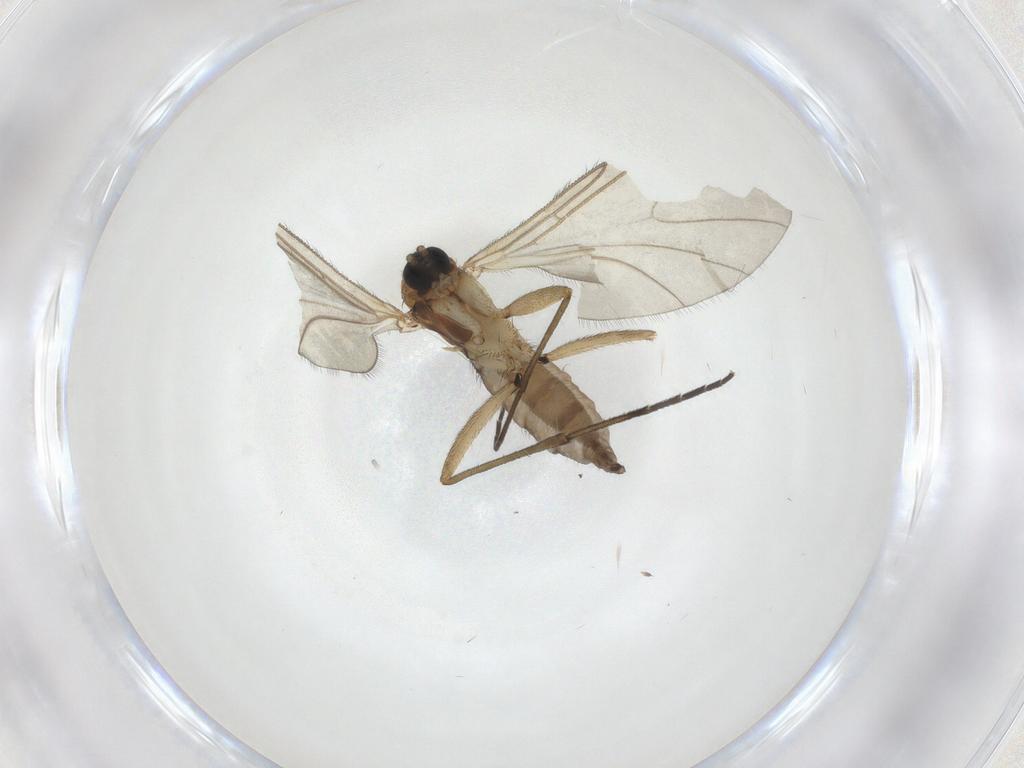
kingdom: Animalia
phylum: Arthropoda
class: Insecta
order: Diptera
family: Sciaridae
